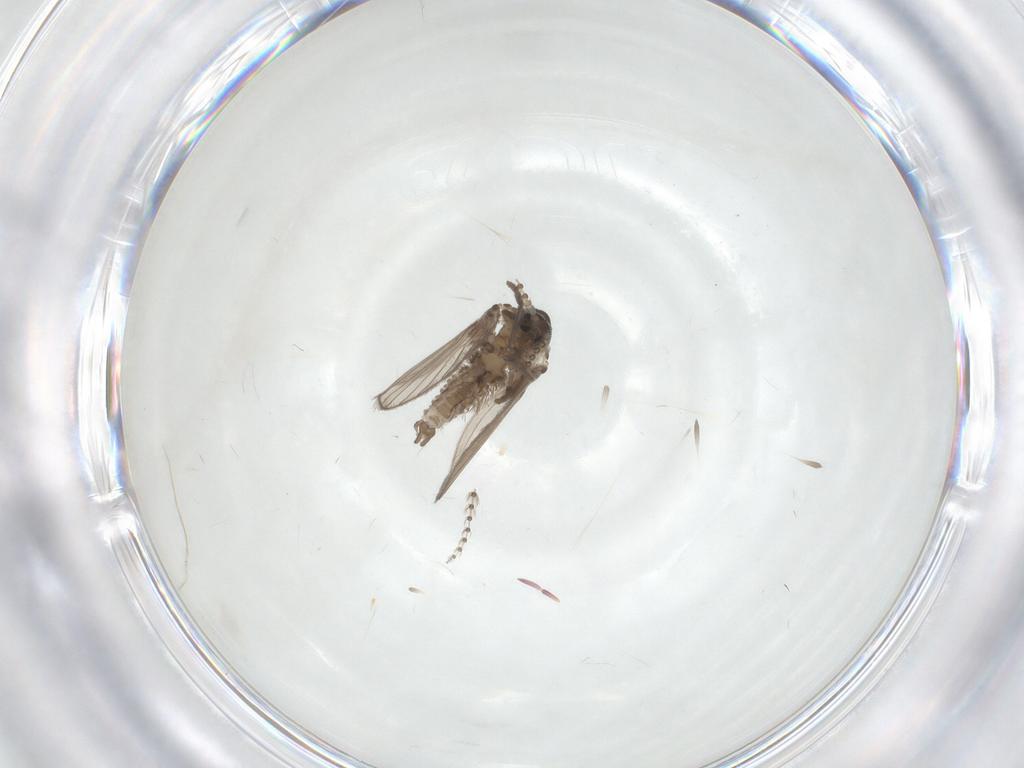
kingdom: Animalia
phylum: Arthropoda
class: Insecta
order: Diptera
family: Psychodidae
